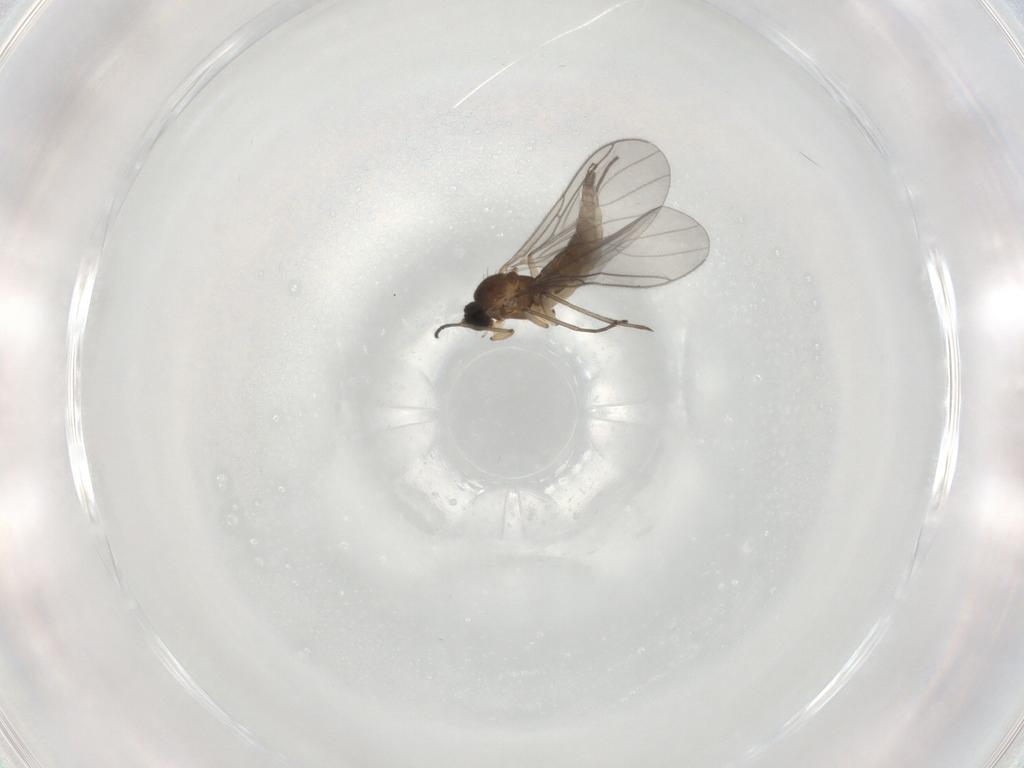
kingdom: Animalia
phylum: Arthropoda
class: Insecta
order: Diptera
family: Sciaridae
